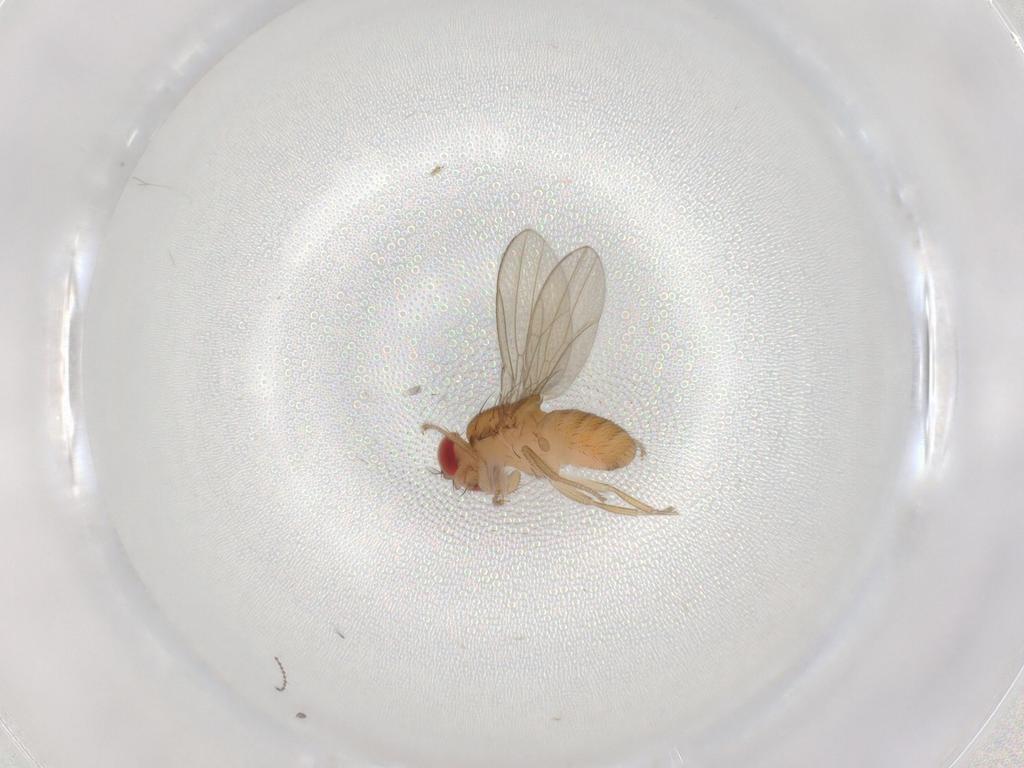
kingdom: Animalia
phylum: Arthropoda
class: Insecta
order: Diptera
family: Drosophilidae
